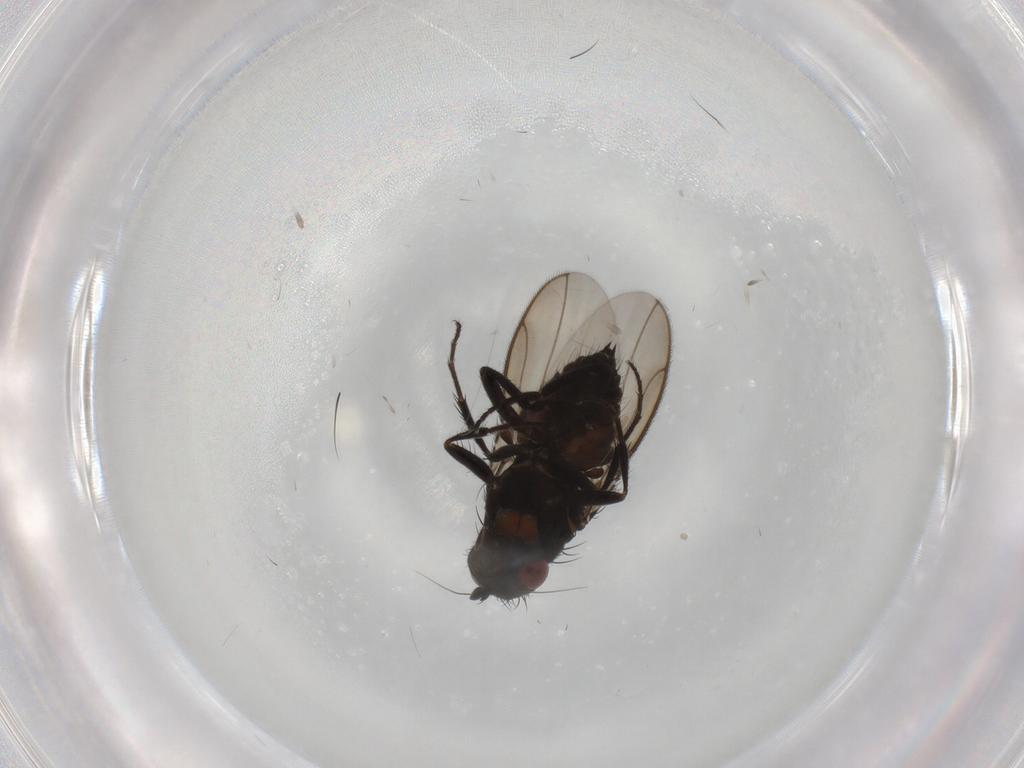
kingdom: Animalia
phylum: Arthropoda
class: Insecta
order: Diptera
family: Sphaeroceridae
